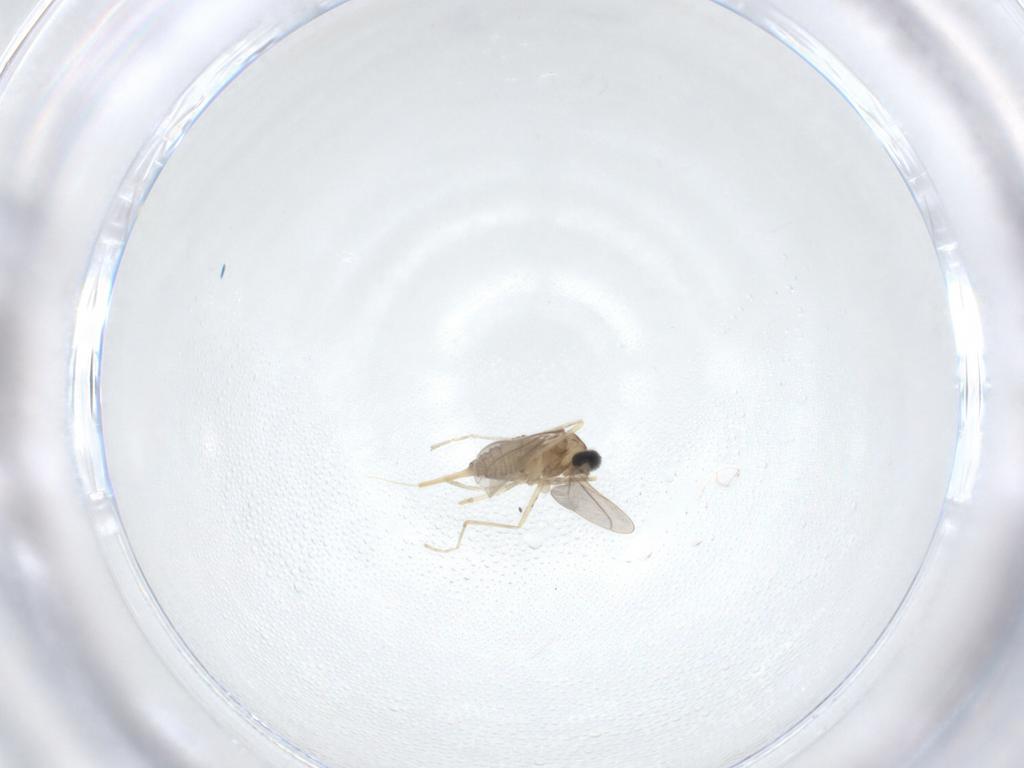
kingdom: Animalia
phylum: Arthropoda
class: Insecta
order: Diptera
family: Cecidomyiidae
